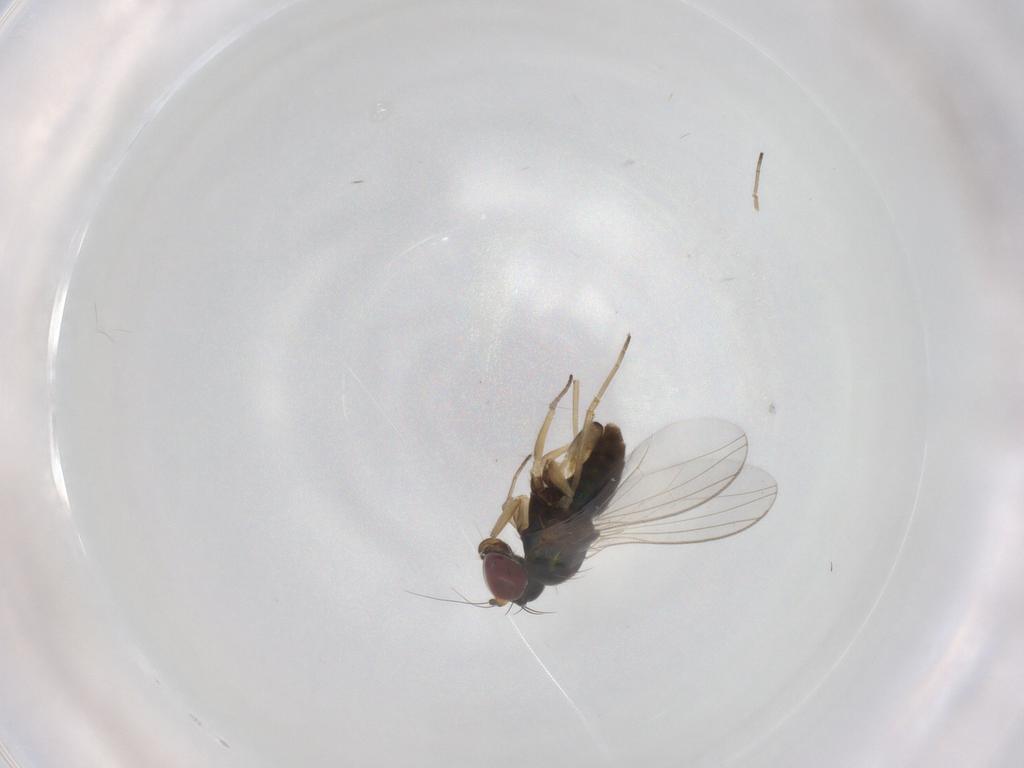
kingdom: Animalia
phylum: Arthropoda
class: Insecta
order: Diptera
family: Dolichopodidae
